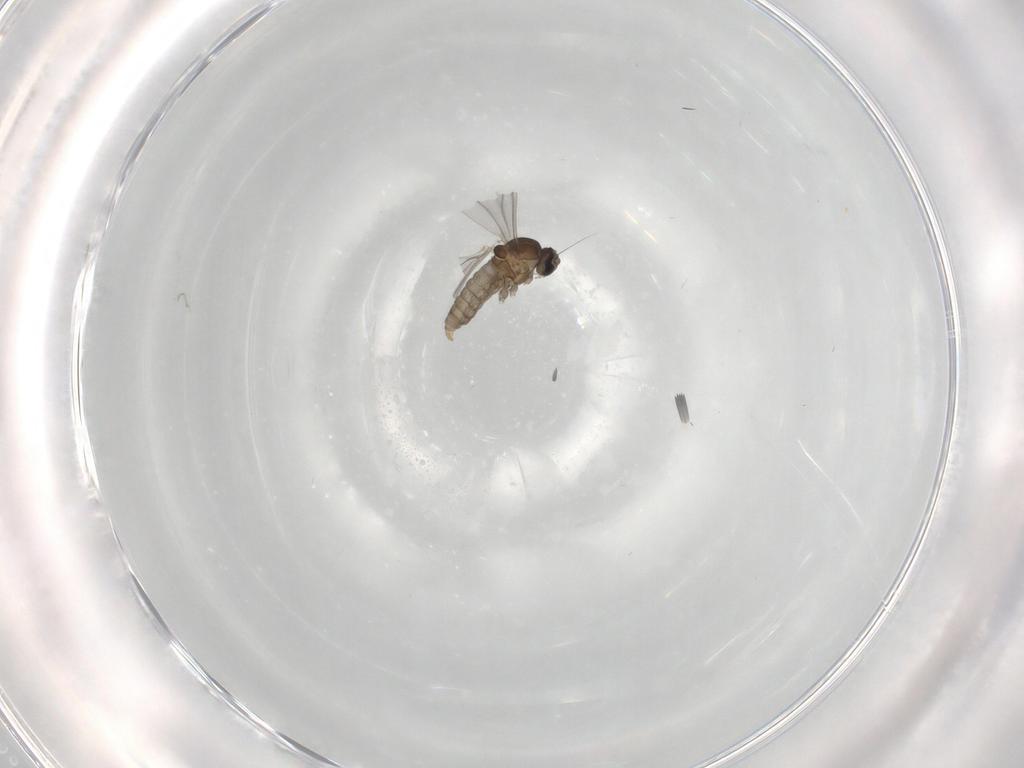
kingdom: Animalia
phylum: Arthropoda
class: Insecta
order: Diptera
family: Cecidomyiidae
